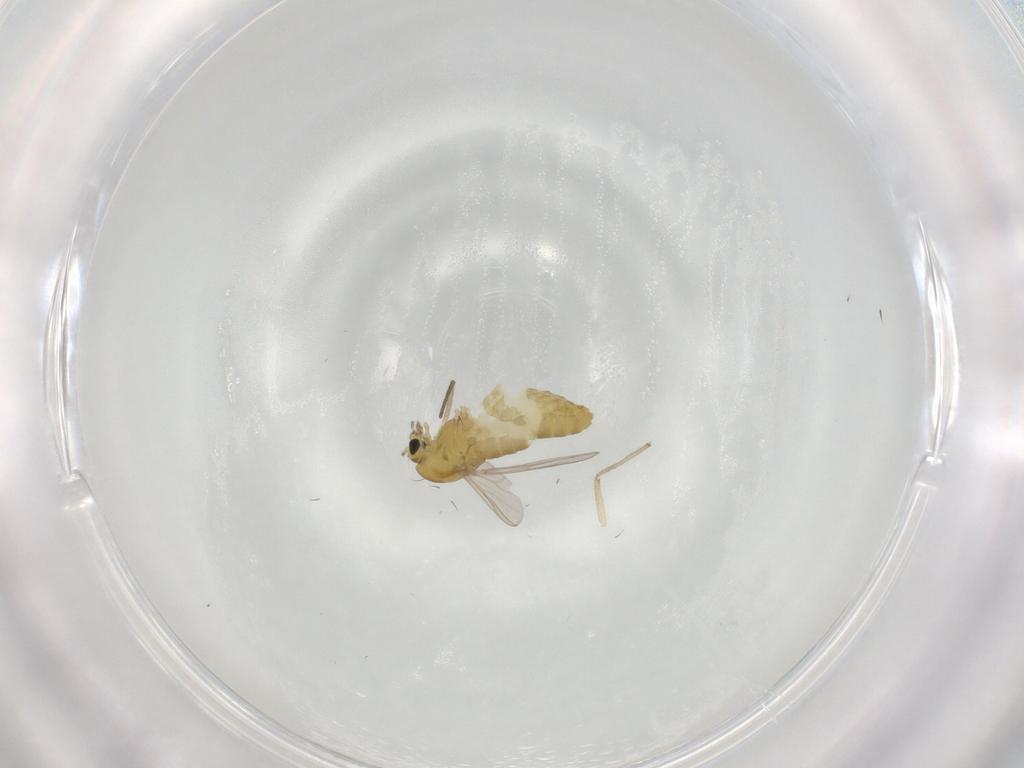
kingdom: Animalia
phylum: Arthropoda
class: Insecta
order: Diptera
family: Chironomidae
